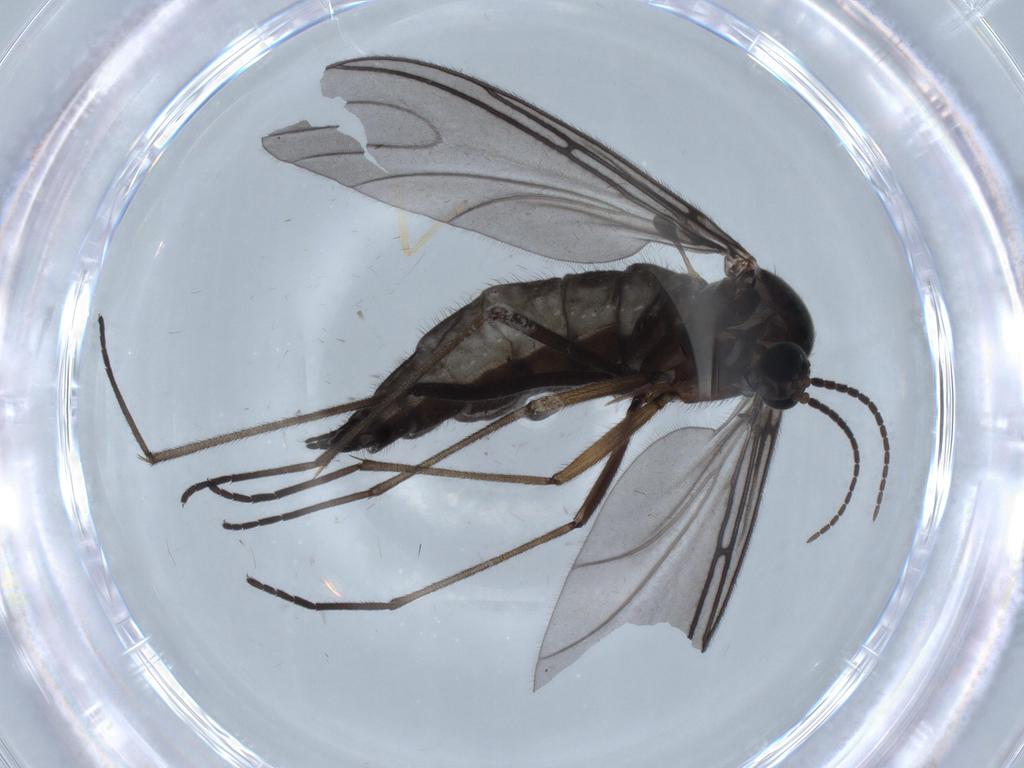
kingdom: Animalia
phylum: Arthropoda
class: Insecta
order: Diptera
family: Sciaridae
